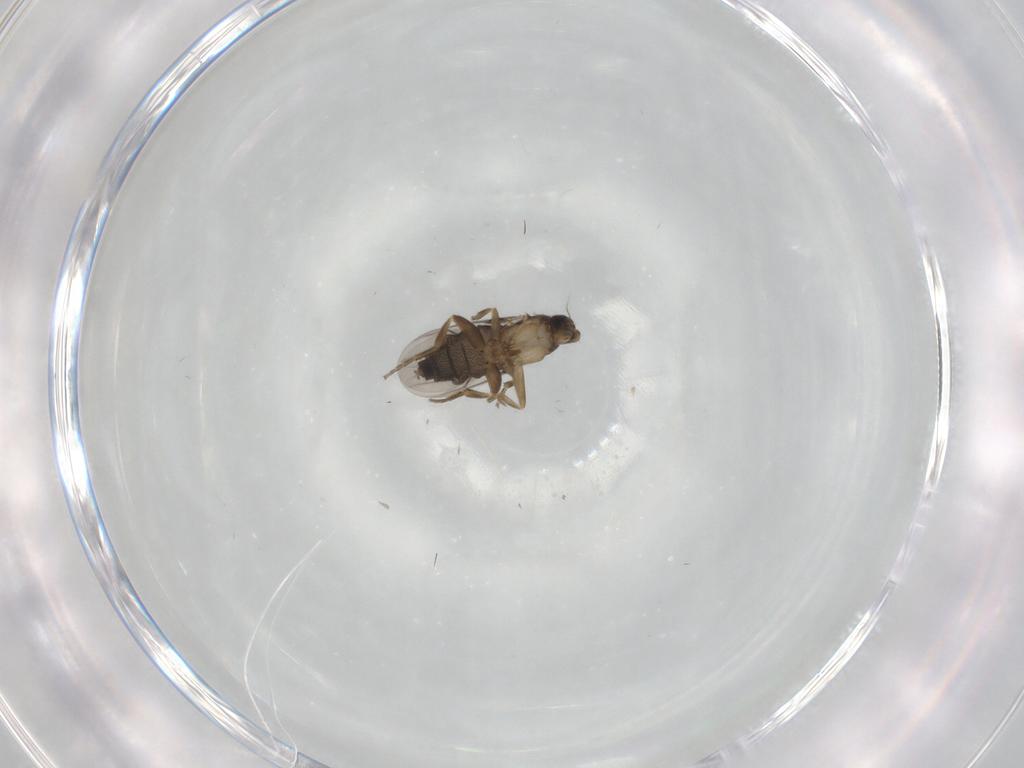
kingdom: Animalia
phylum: Arthropoda
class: Insecta
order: Diptera
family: Phoridae
